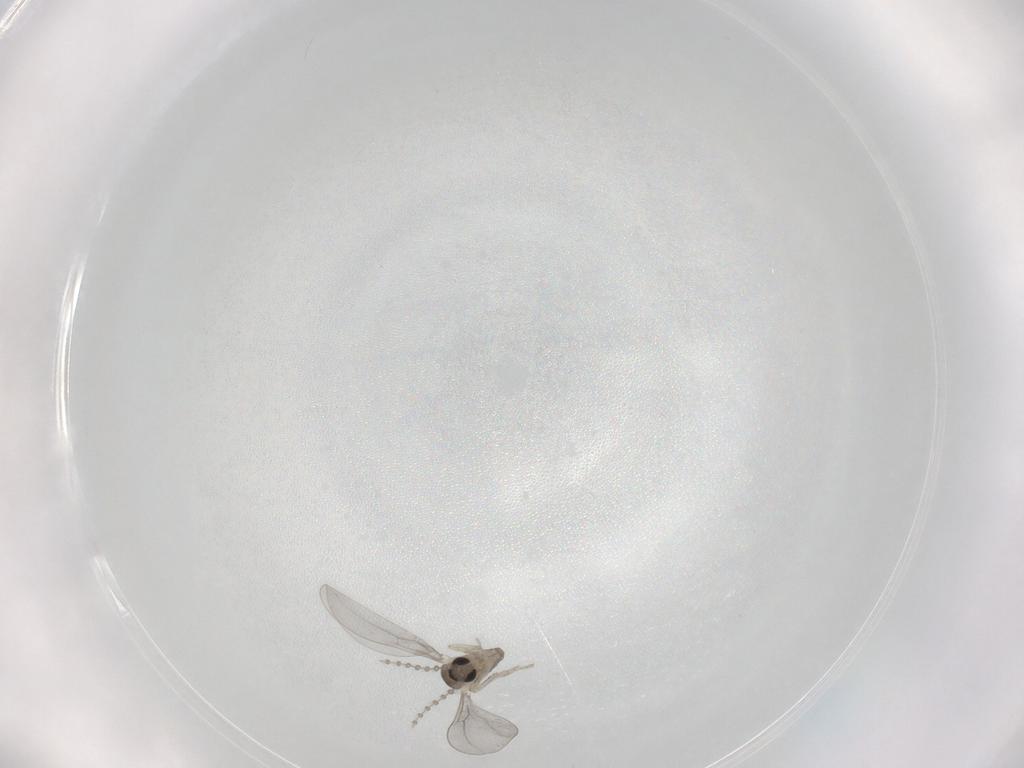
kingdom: Animalia
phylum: Arthropoda
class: Insecta
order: Diptera
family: Cecidomyiidae
